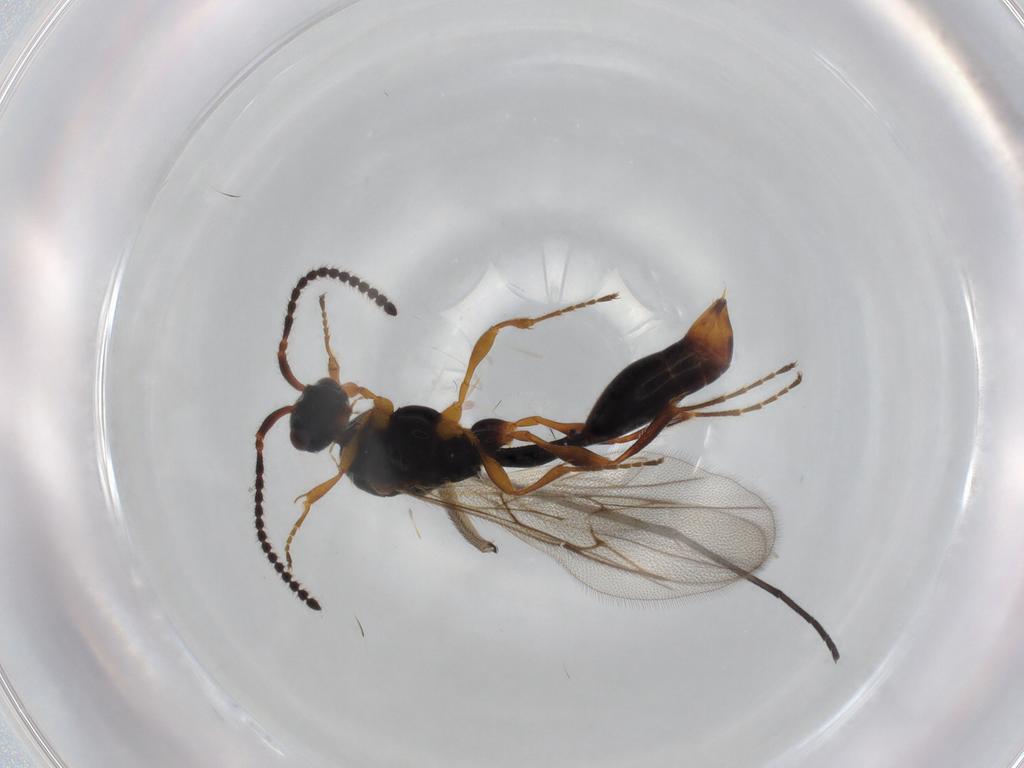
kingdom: Animalia
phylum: Arthropoda
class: Insecta
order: Hymenoptera
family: Diapriidae
